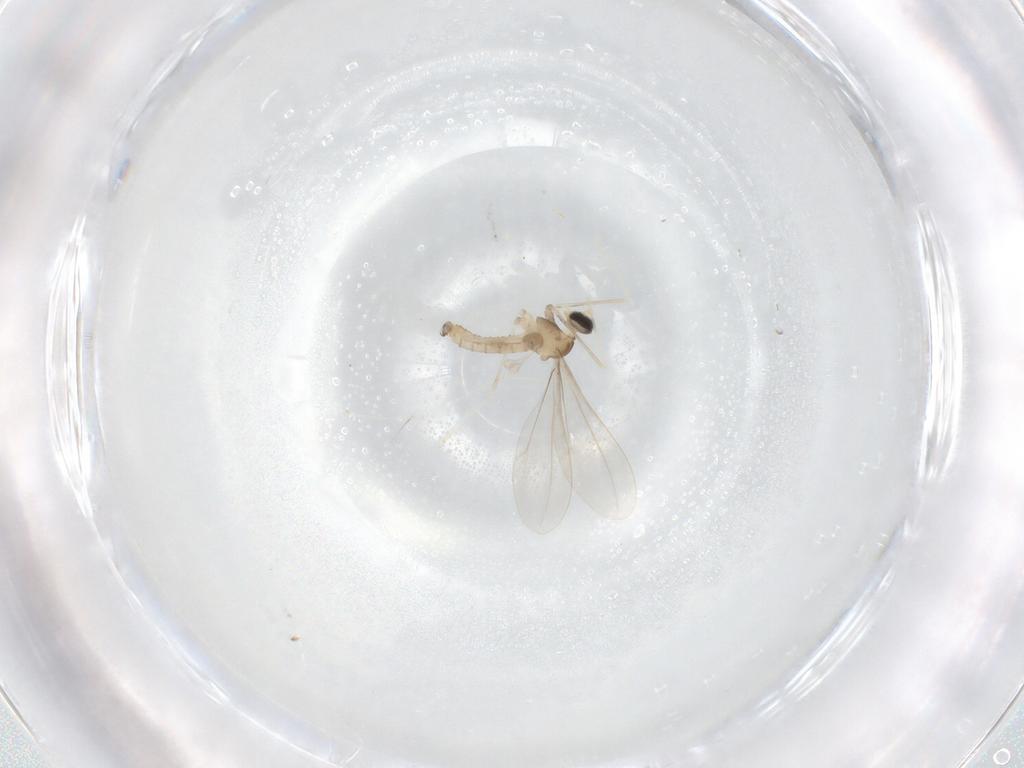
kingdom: Animalia
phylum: Arthropoda
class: Insecta
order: Diptera
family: Cecidomyiidae
